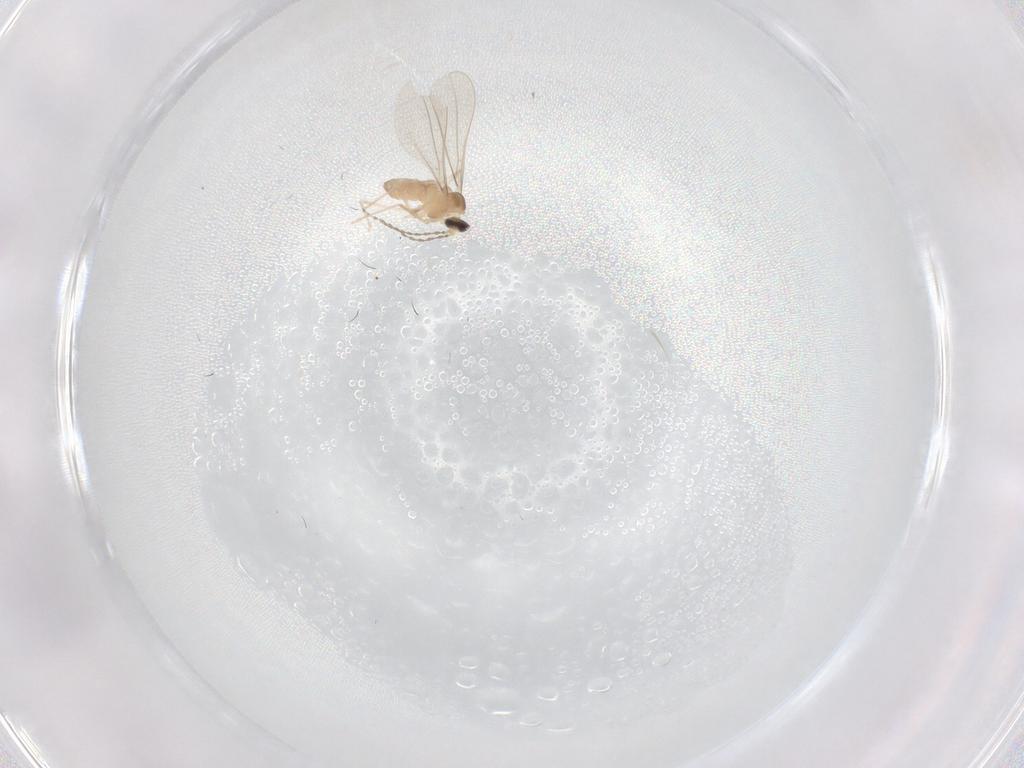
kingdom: Animalia
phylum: Arthropoda
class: Insecta
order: Diptera
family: Cecidomyiidae
